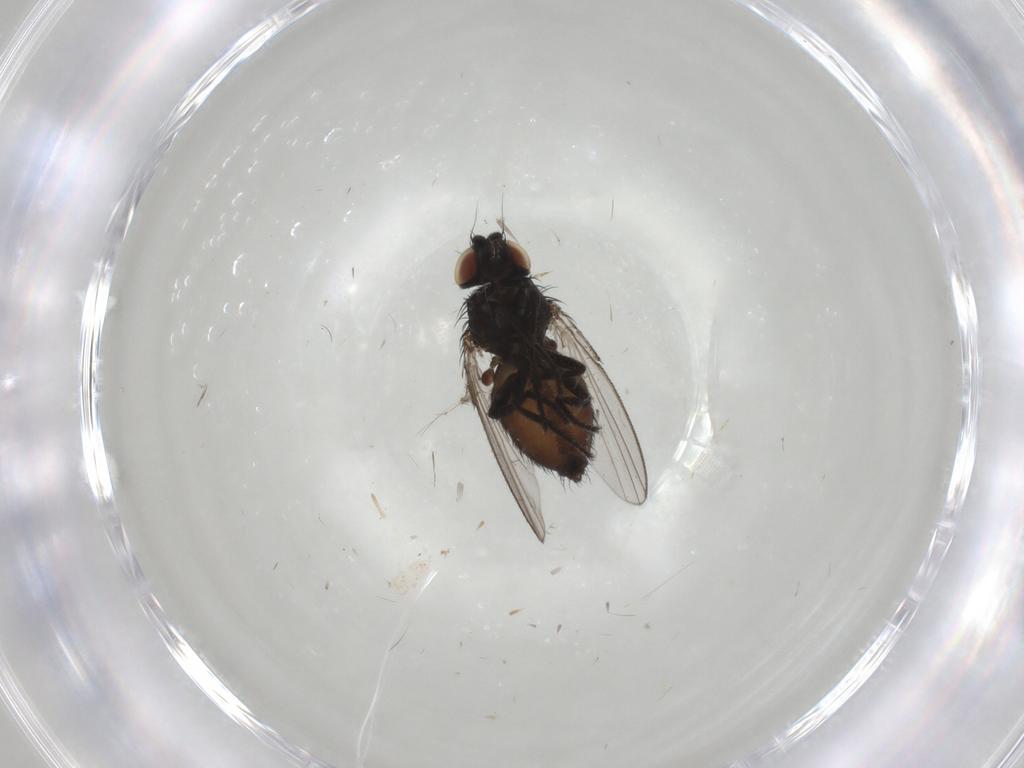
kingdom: Animalia
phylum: Arthropoda
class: Insecta
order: Diptera
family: Milichiidae
